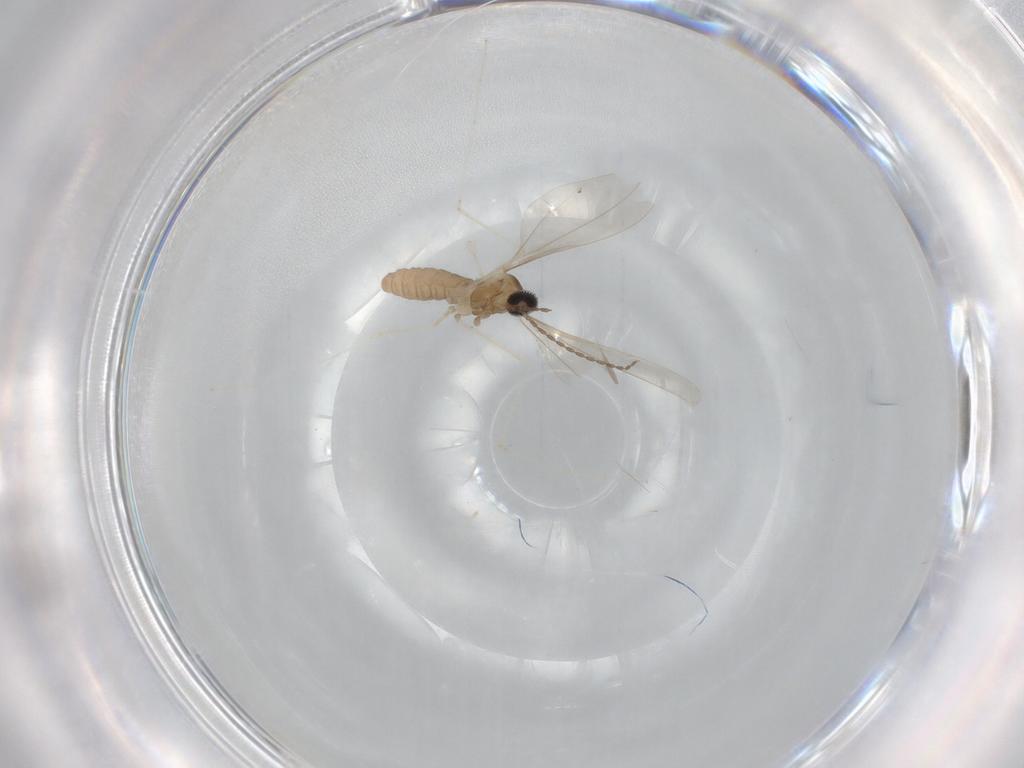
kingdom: Animalia
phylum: Arthropoda
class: Insecta
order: Diptera
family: Cecidomyiidae
